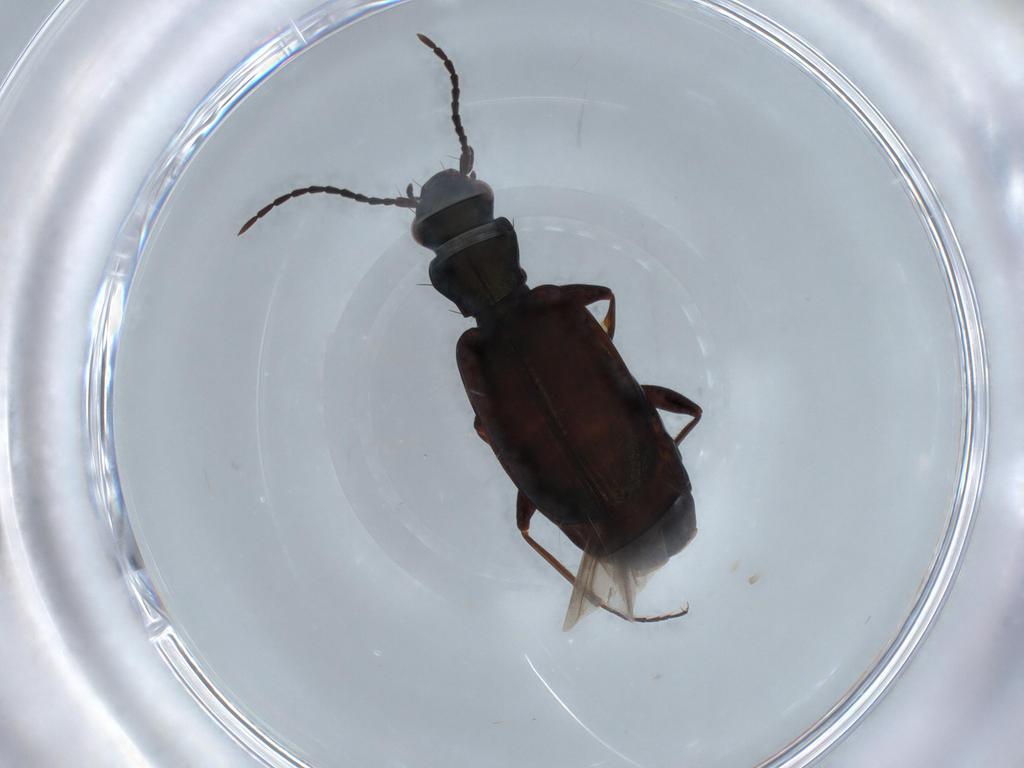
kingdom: Animalia
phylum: Arthropoda
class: Insecta
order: Coleoptera
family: Carabidae
